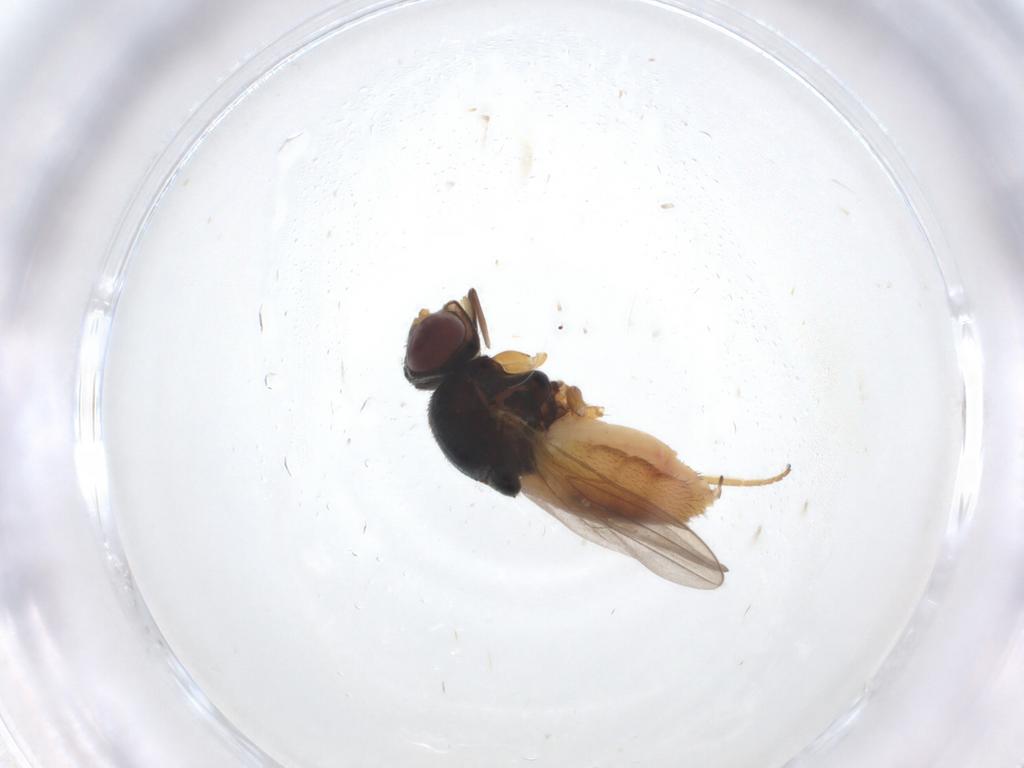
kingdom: Animalia
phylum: Arthropoda
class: Insecta
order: Diptera
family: Chloropidae
